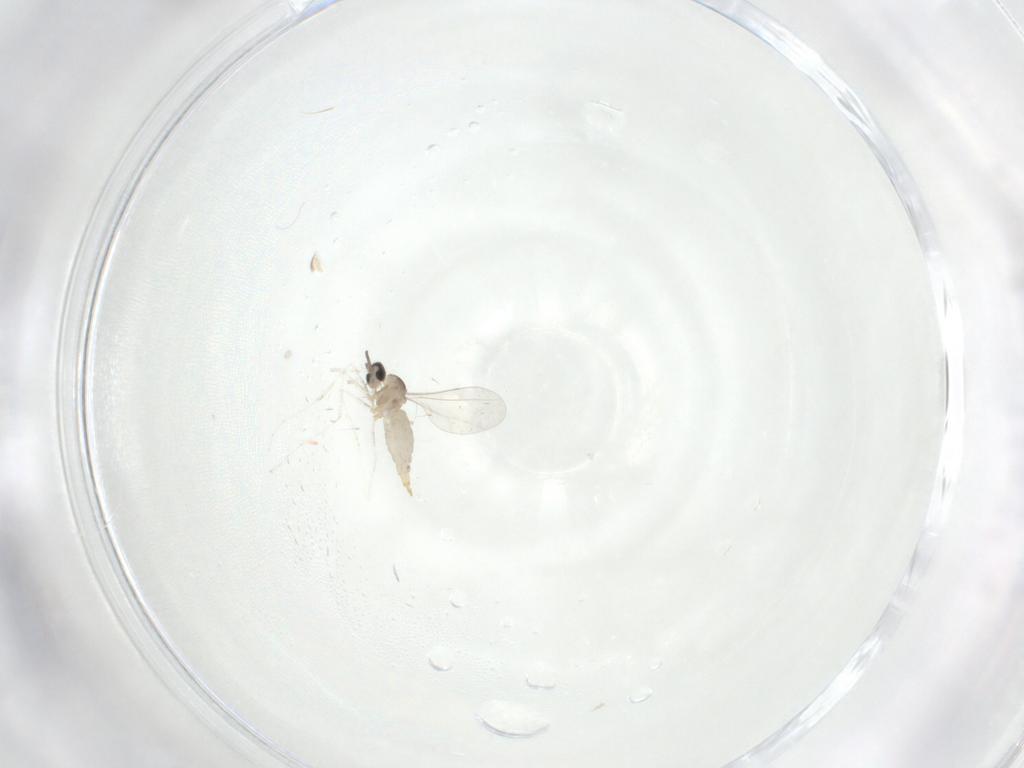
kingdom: Animalia
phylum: Arthropoda
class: Insecta
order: Diptera
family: Cecidomyiidae
